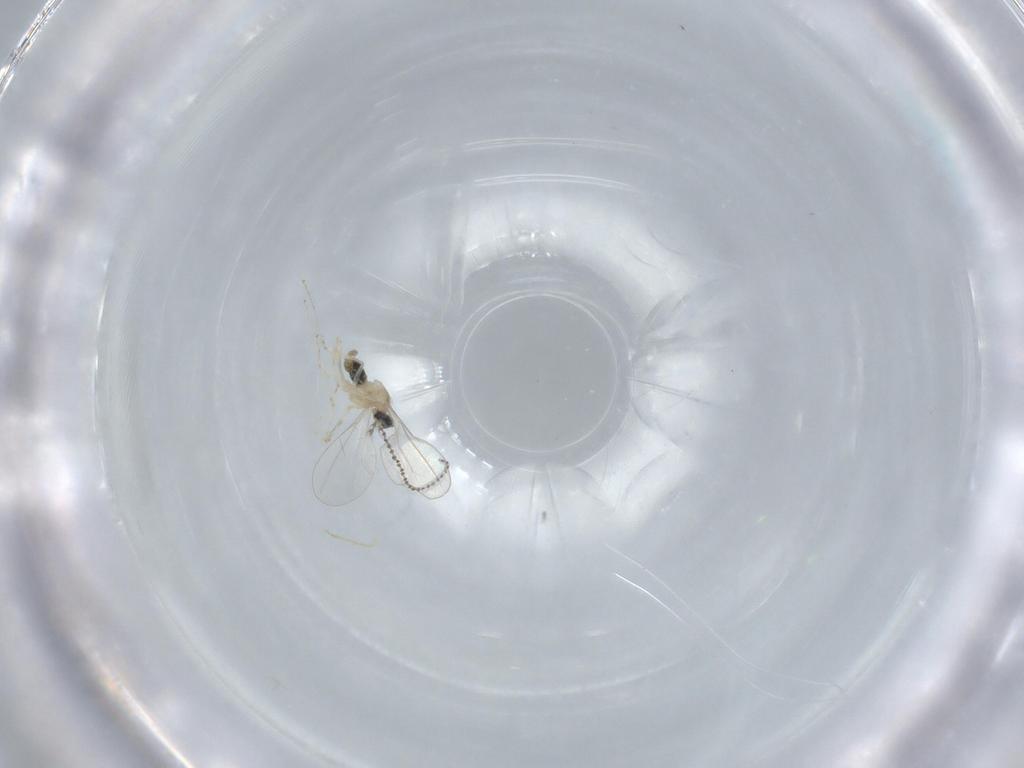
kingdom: Animalia
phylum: Arthropoda
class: Insecta
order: Diptera
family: Cecidomyiidae
